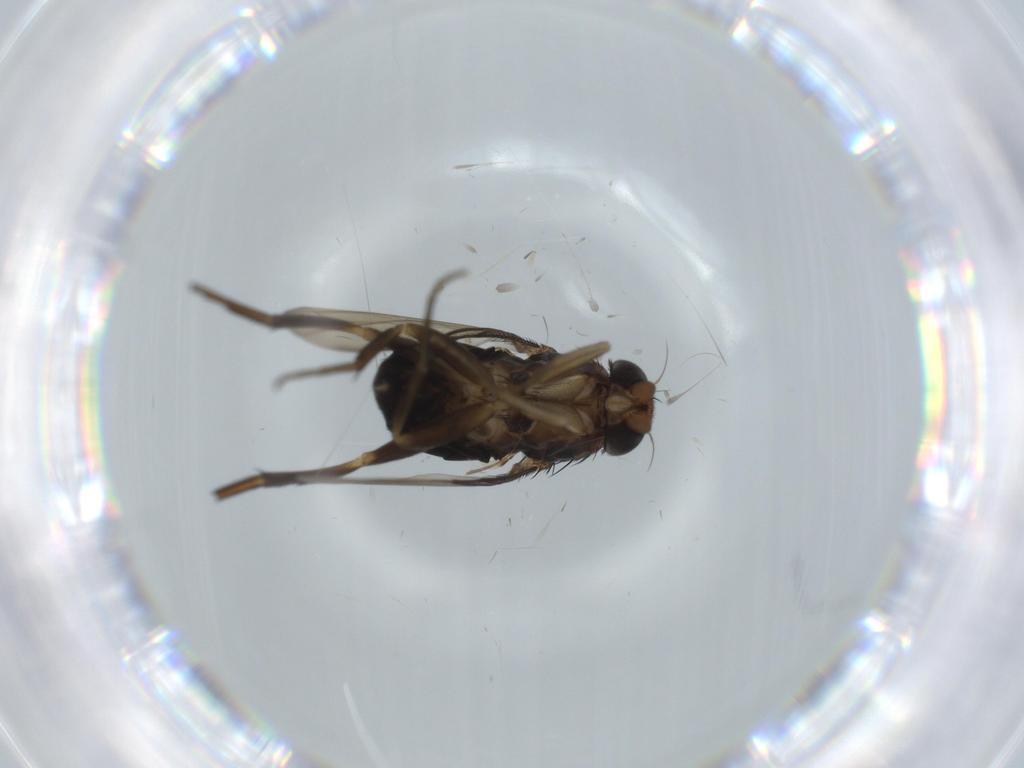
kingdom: Animalia
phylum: Arthropoda
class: Insecta
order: Diptera
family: Phoridae
